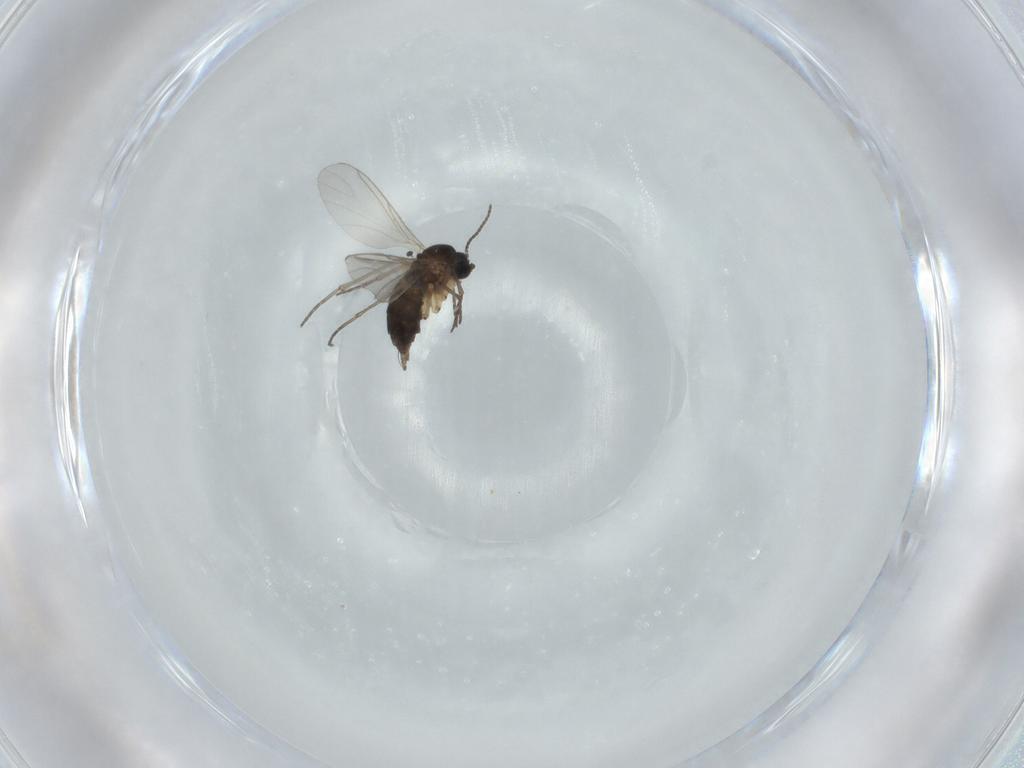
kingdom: Animalia
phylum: Arthropoda
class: Insecta
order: Diptera
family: Sciaridae
